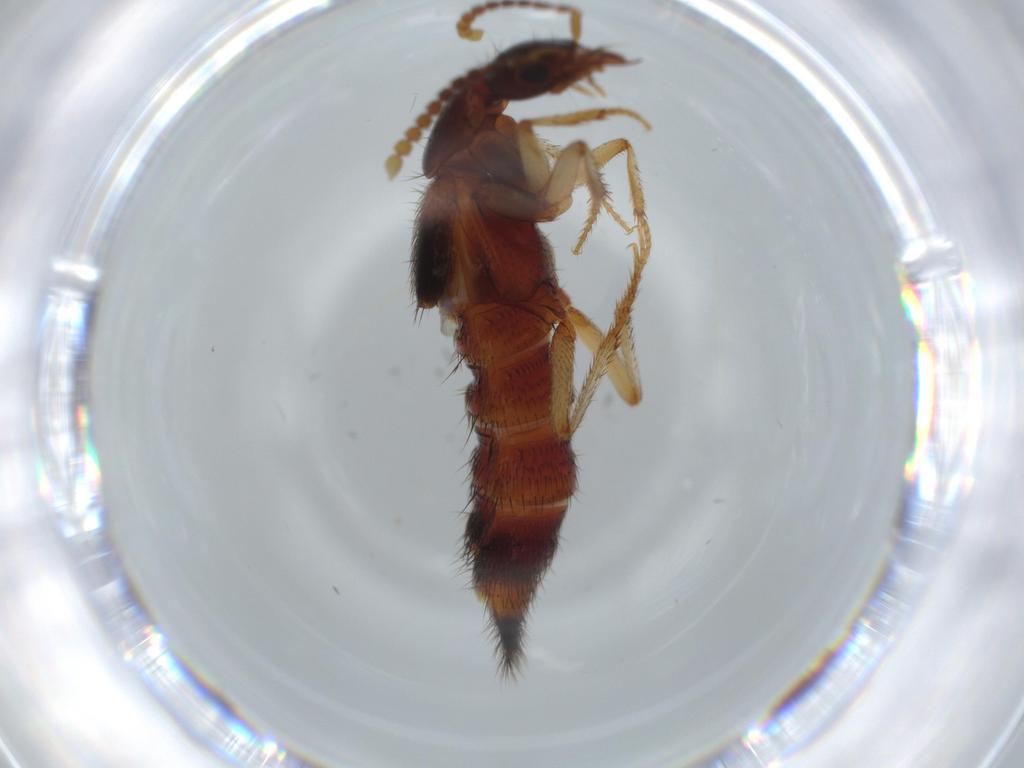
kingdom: Animalia
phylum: Arthropoda
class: Insecta
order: Coleoptera
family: Staphylinidae
